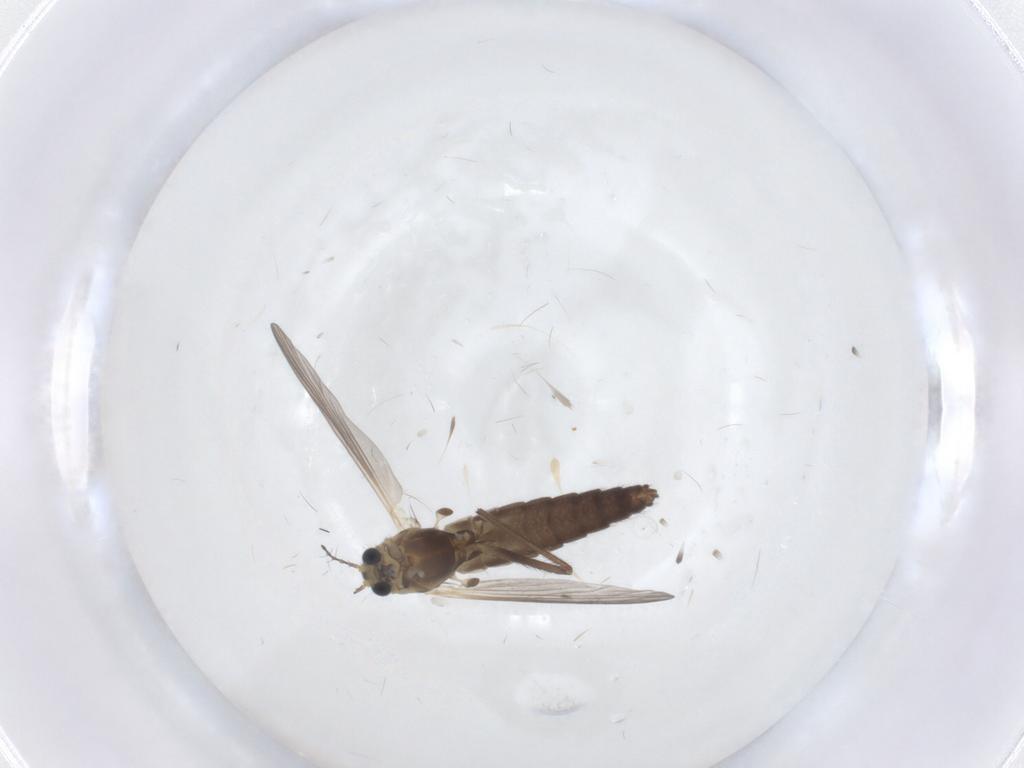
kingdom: Animalia
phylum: Arthropoda
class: Insecta
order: Diptera
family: Chironomidae
